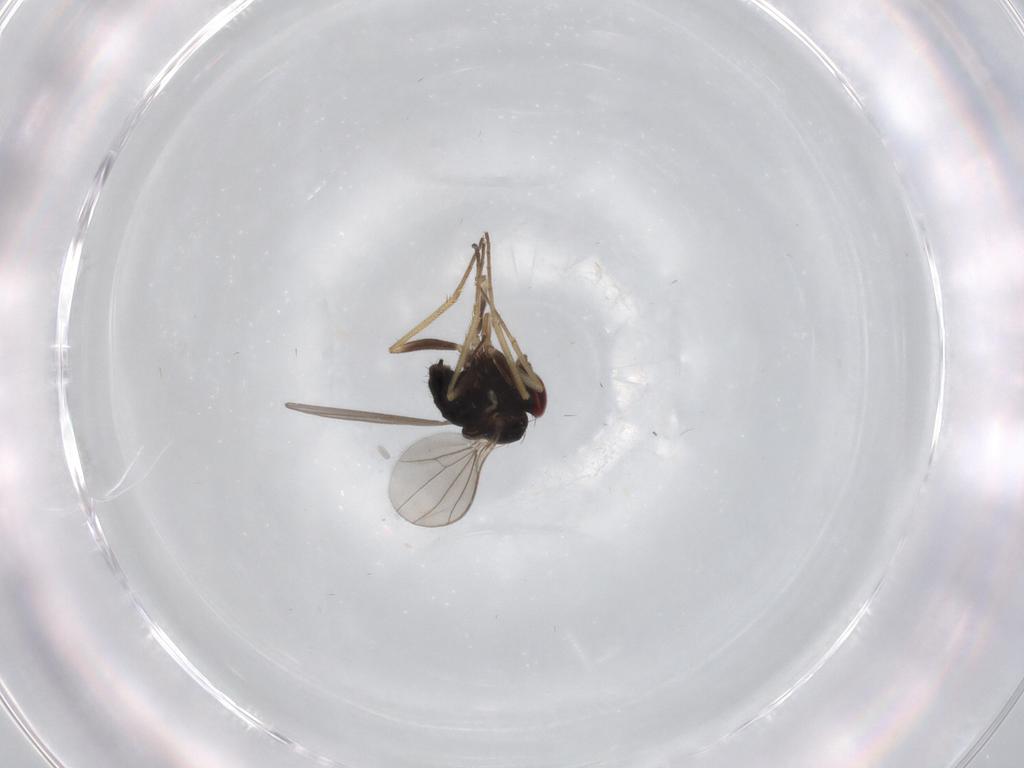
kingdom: Animalia
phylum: Arthropoda
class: Insecta
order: Diptera
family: Dolichopodidae
